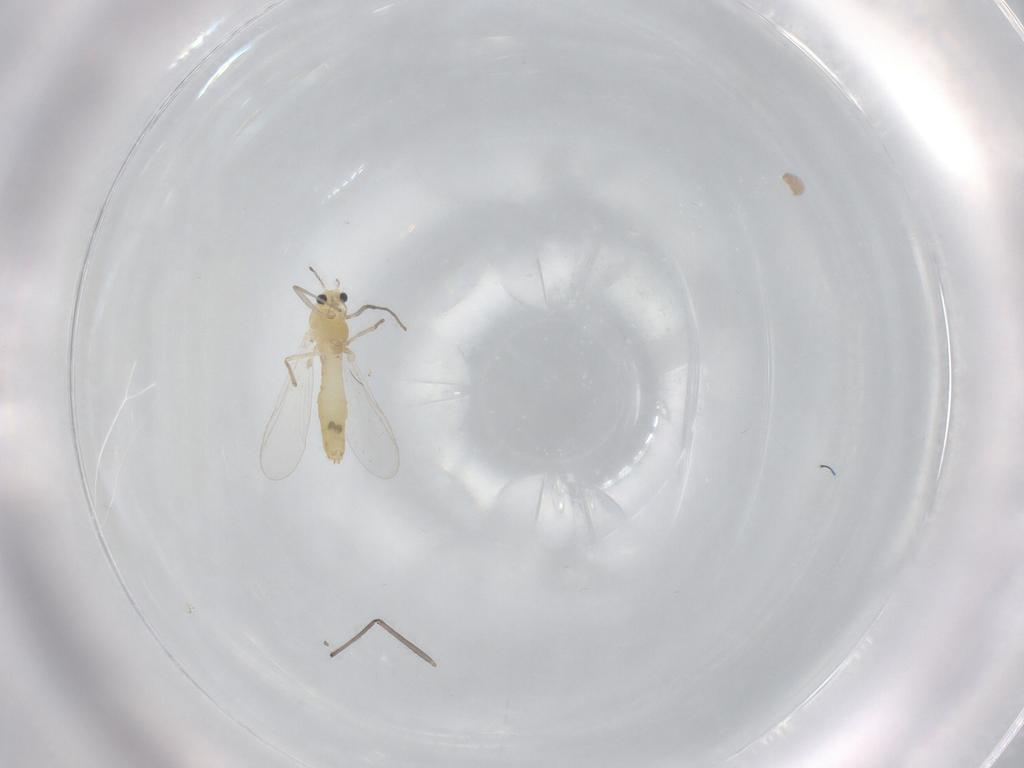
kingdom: Animalia
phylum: Arthropoda
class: Insecta
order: Diptera
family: Chironomidae
